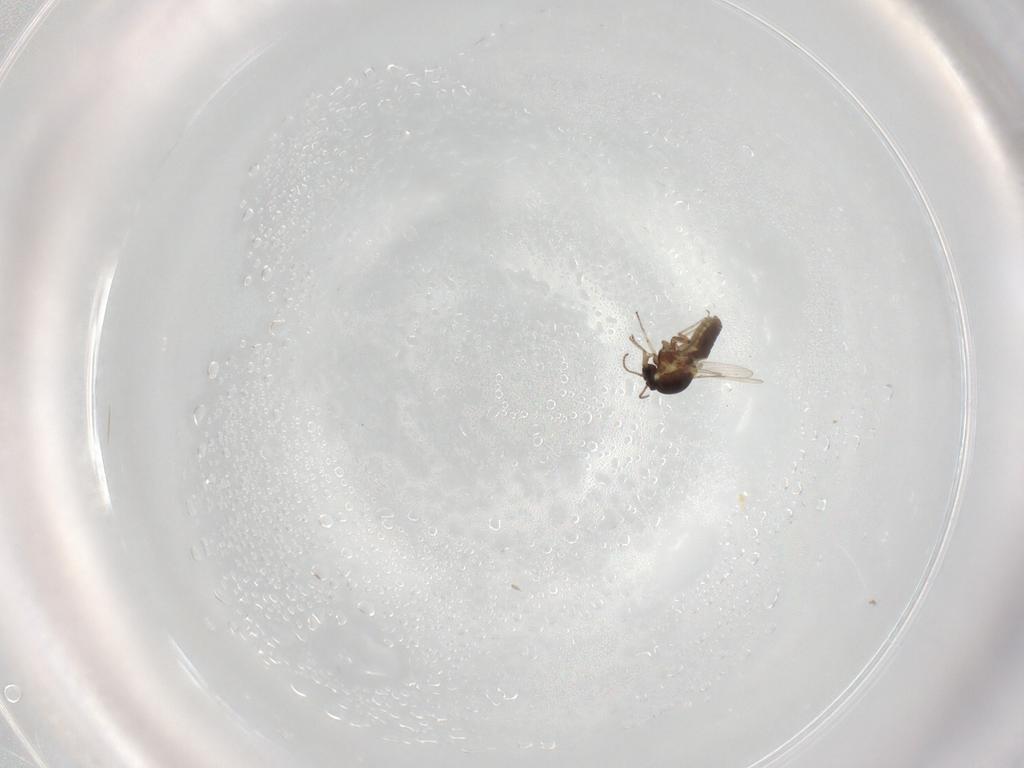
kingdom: Animalia
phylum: Arthropoda
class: Insecta
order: Diptera
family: Ceratopogonidae
